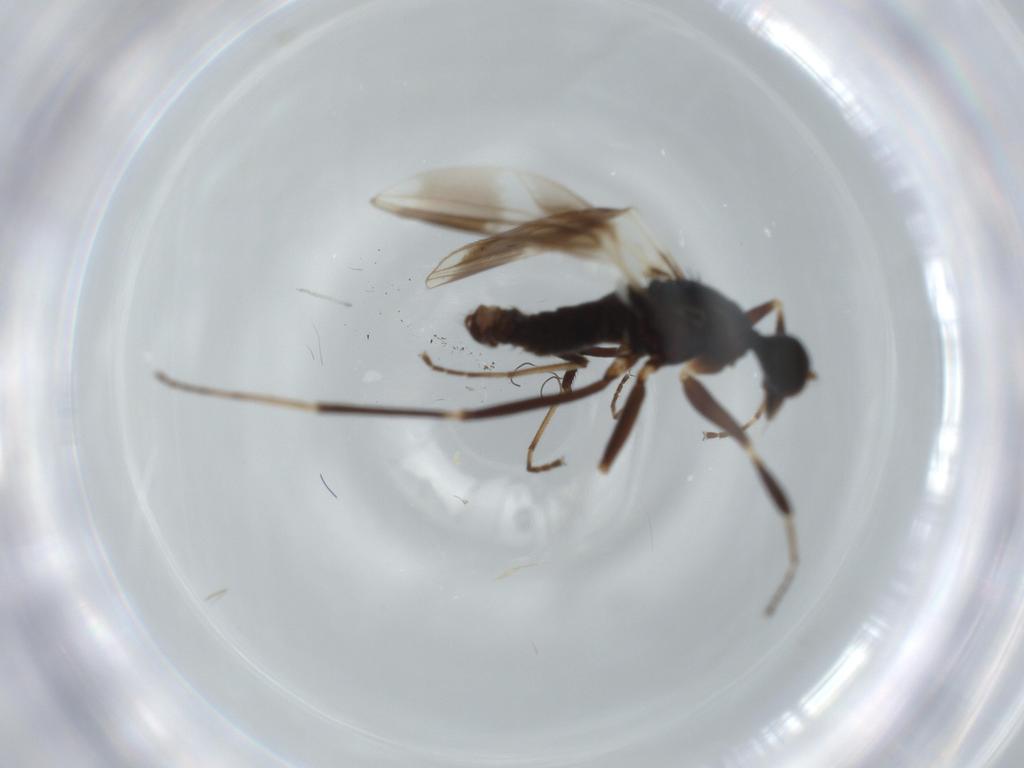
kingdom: Animalia
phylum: Arthropoda
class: Insecta
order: Diptera
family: Hybotidae
